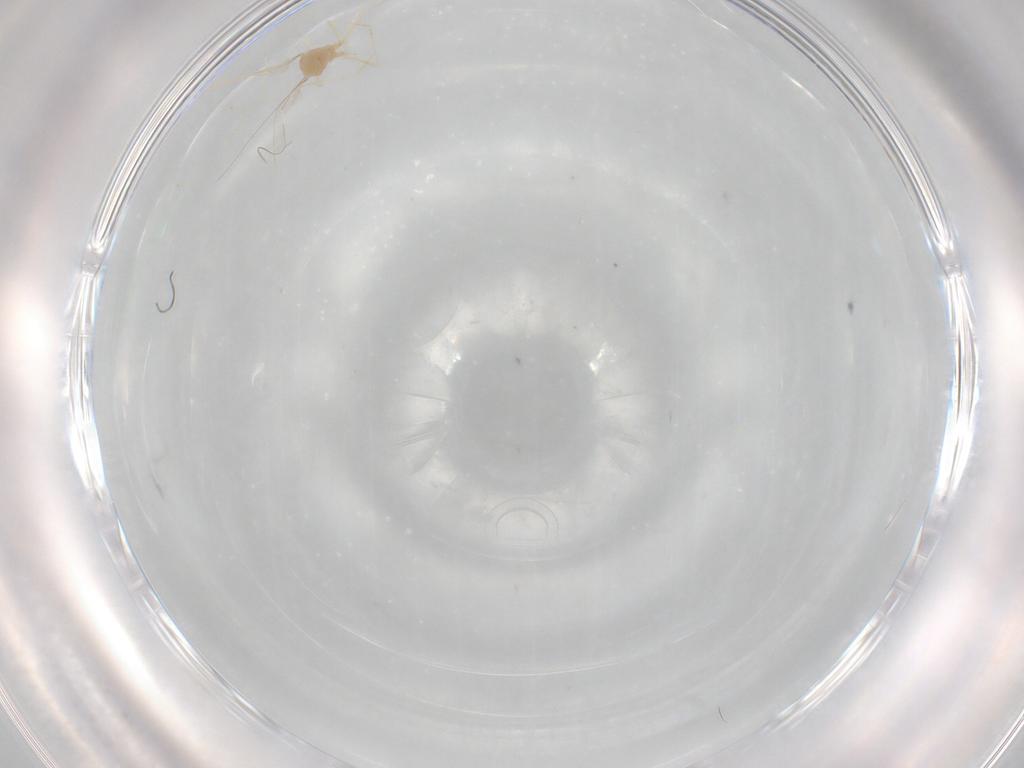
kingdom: Animalia
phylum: Arthropoda
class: Insecta
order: Diptera
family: Cecidomyiidae
